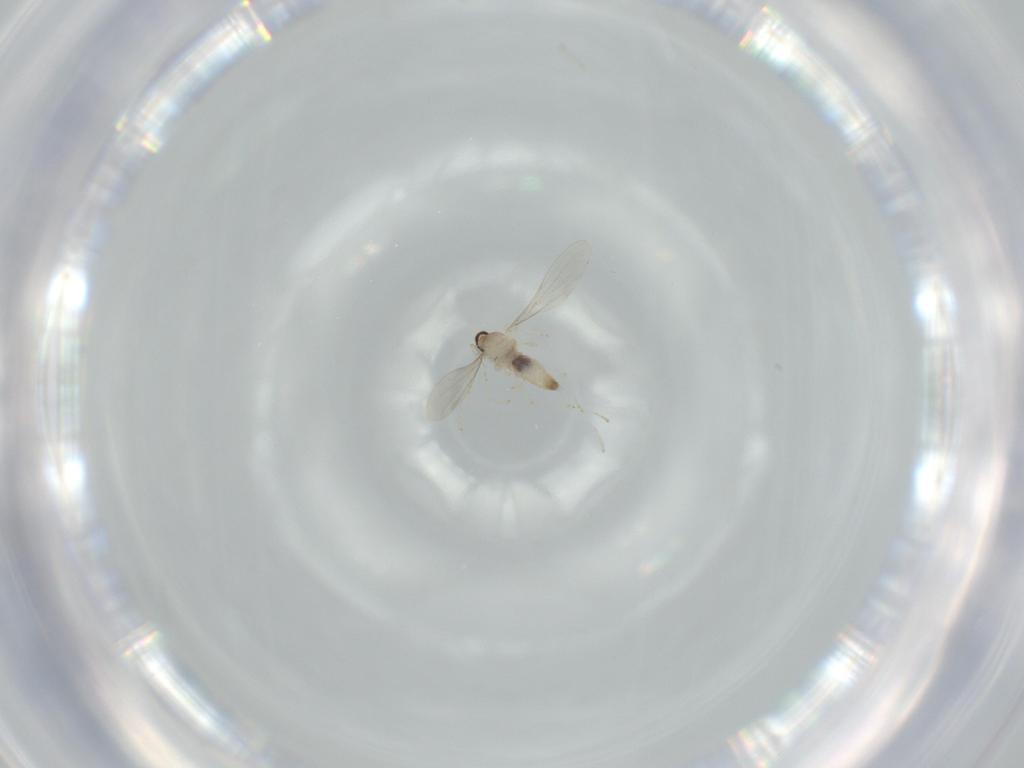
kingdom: Animalia
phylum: Arthropoda
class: Insecta
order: Diptera
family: Cecidomyiidae
